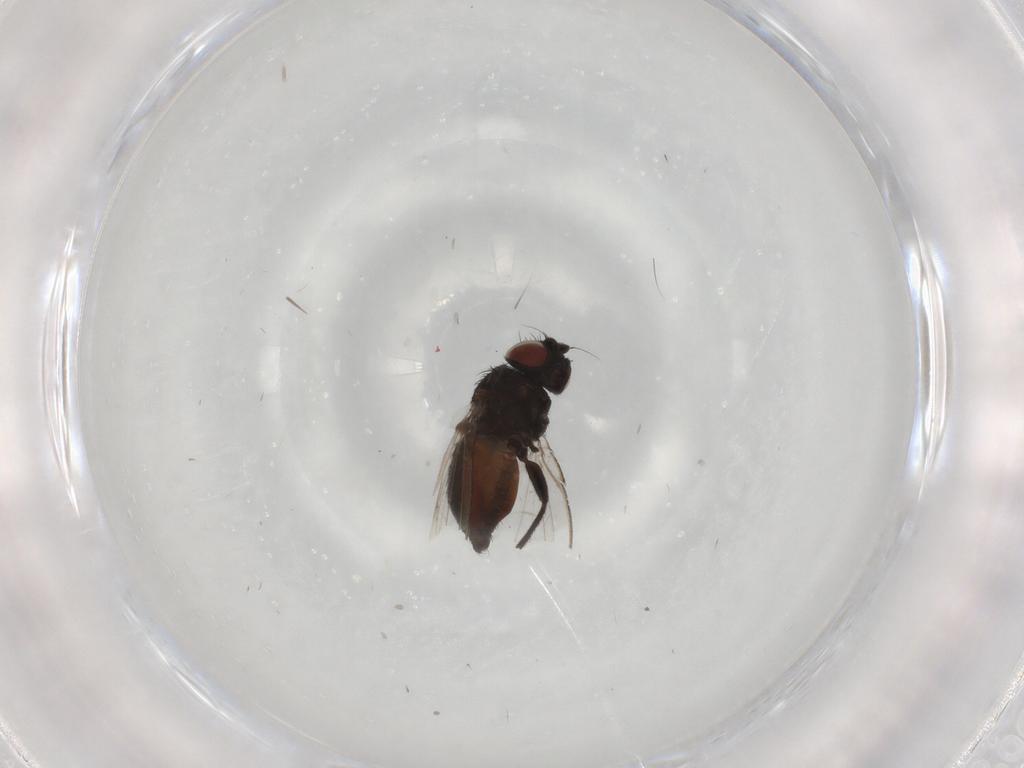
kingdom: Animalia
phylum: Arthropoda
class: Insecta
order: Diptera
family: Milichiidae
